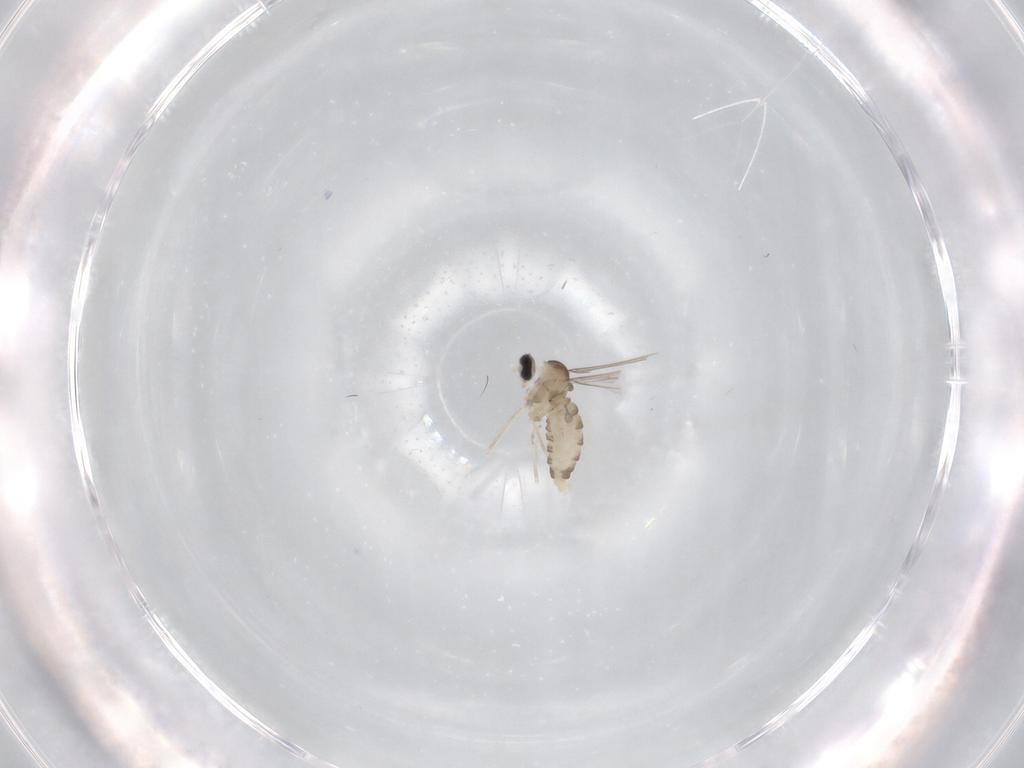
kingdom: Animalia
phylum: Arthropoda
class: Insecta
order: Diptera
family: Cecidomyiidae
